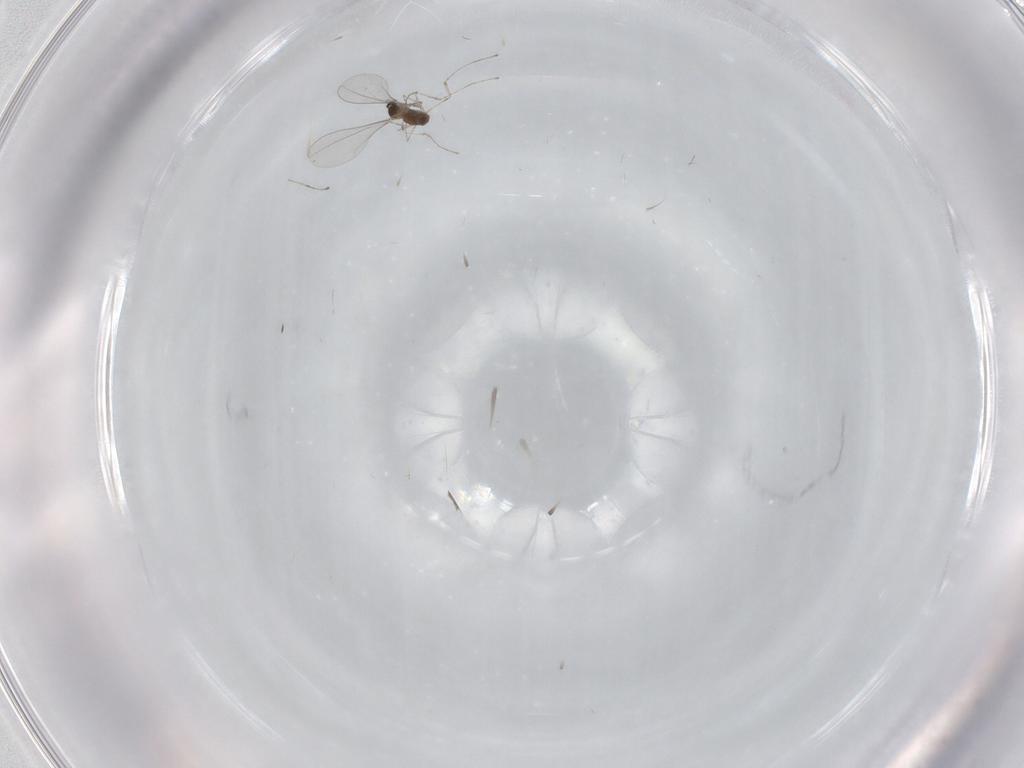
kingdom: Animalia
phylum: Arthropoda
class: Insecta
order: Diptera
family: Cecidomyiidae
